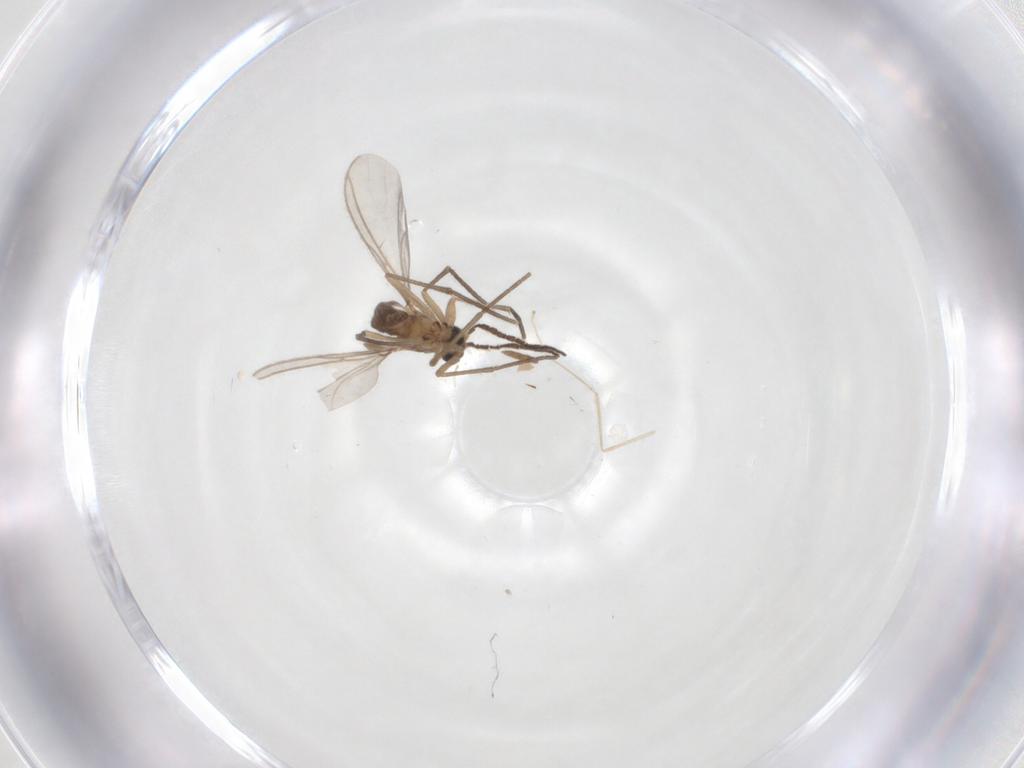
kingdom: Animalia
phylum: Arthropoda
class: Insecta
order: Diptera
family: Sciaridae
